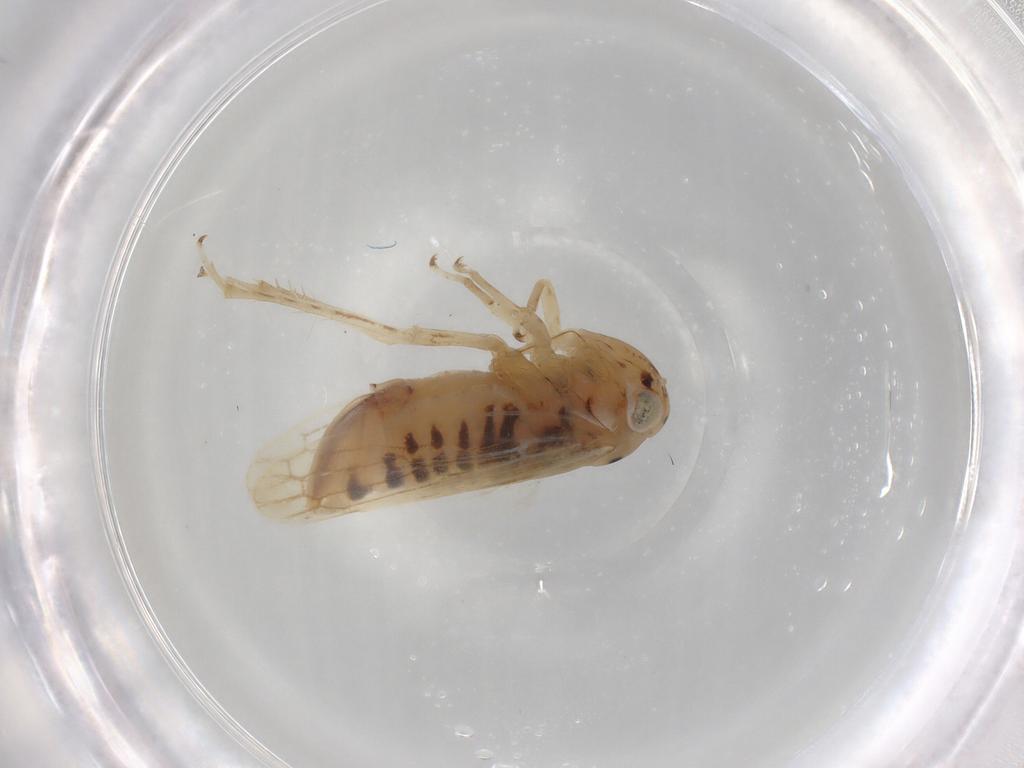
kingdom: Animalia
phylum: Arthropoda
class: Insecta
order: Hemiptera
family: Cicadellidae
